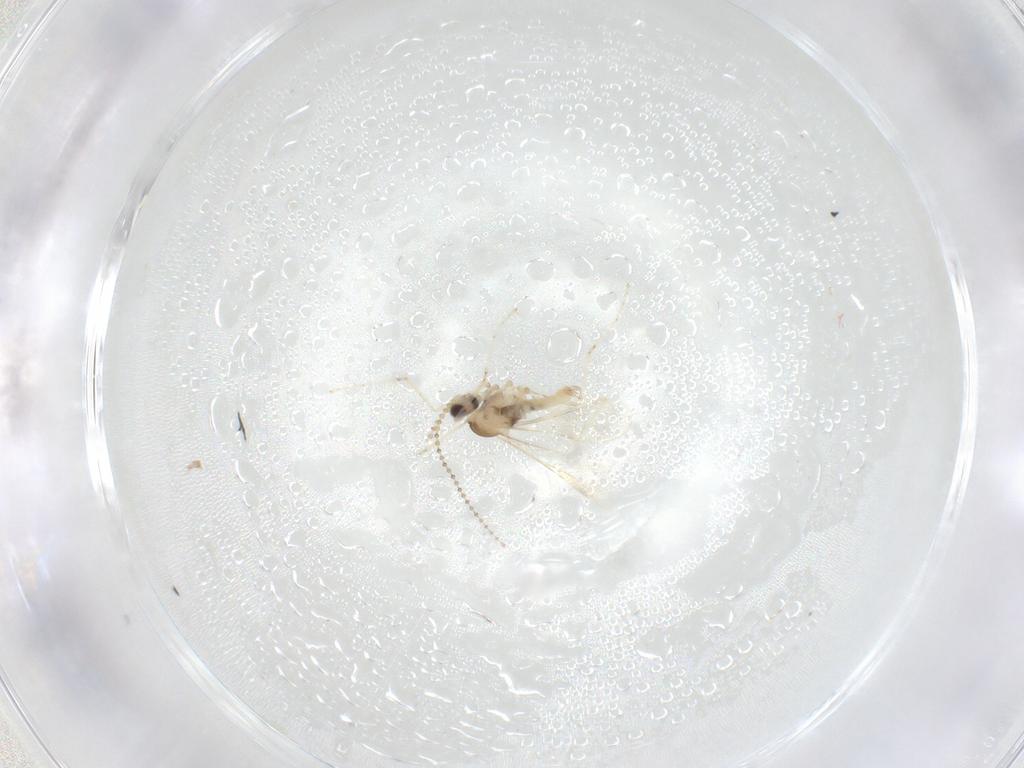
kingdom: Animalia
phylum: Arthropoda
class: Insecta
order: Diptera
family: Cecidomyiidae
